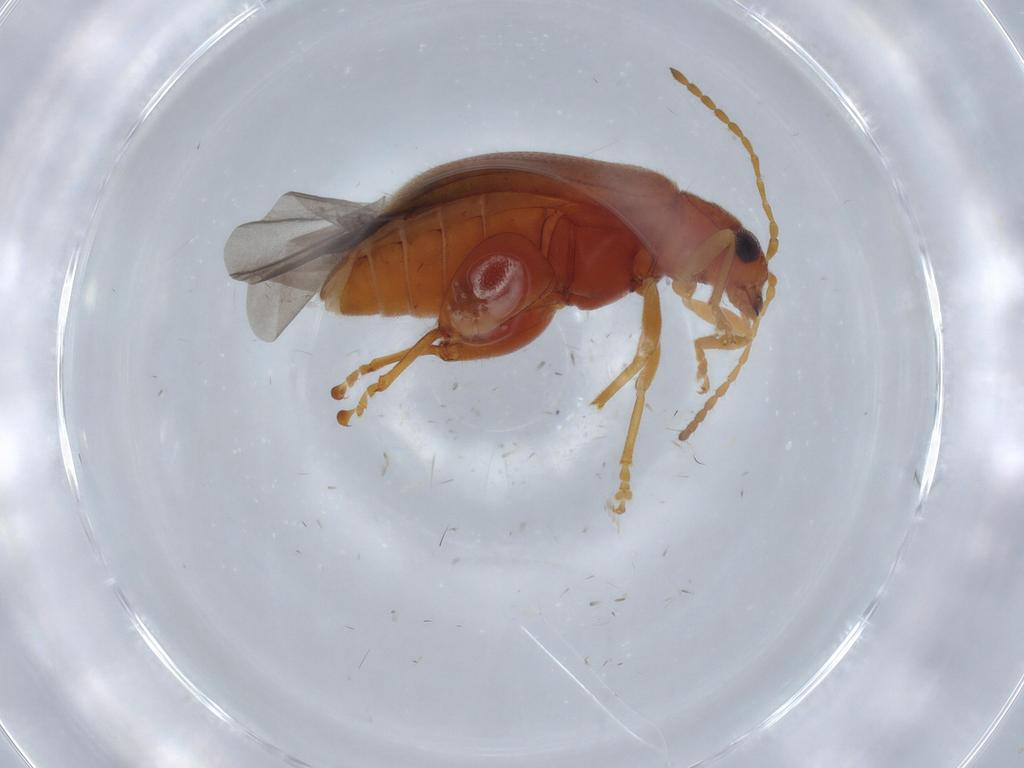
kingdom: Animalia
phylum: Arthropoda
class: Insecta
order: Coleoptera
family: Chrysomelidae
